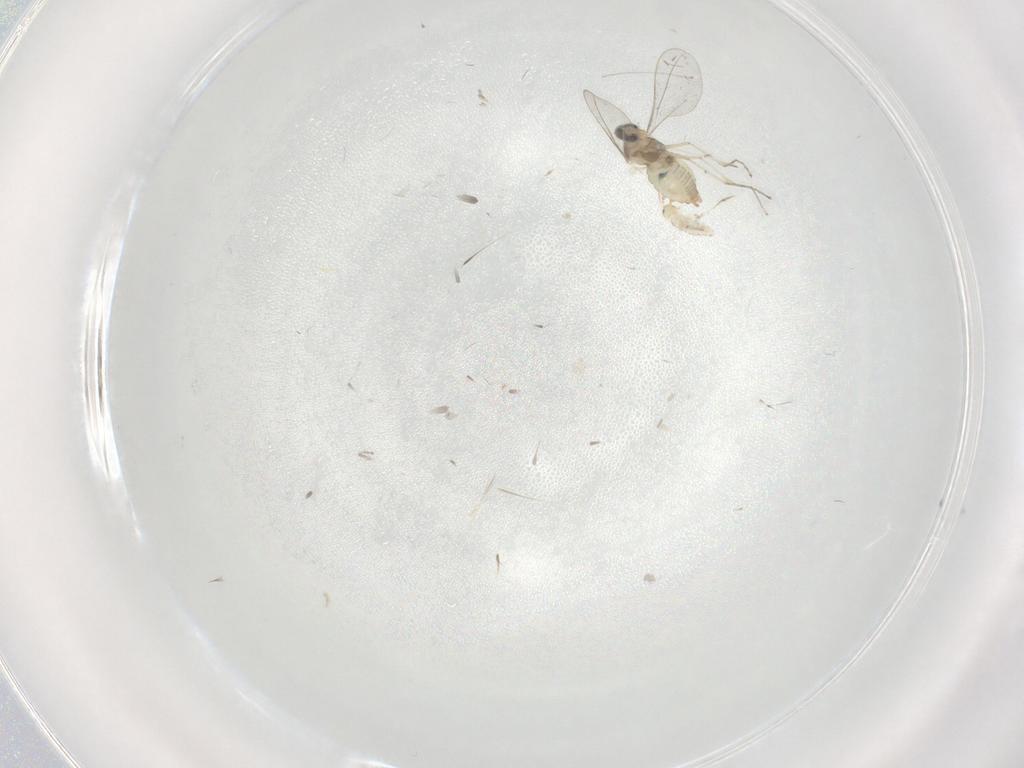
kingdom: Animalia
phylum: Arthropoda
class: Insecta
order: Diptera
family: Cecidomyiidae
